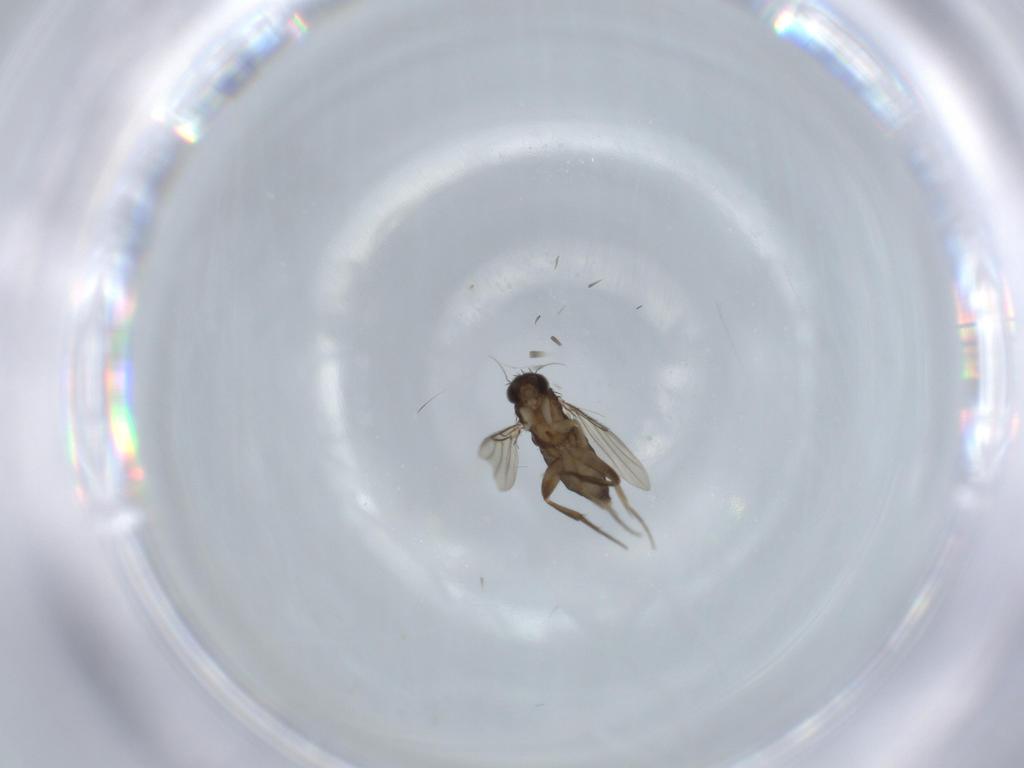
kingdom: Animalia
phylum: Arthropoda
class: Insecta
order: Diptera
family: Phoridae
